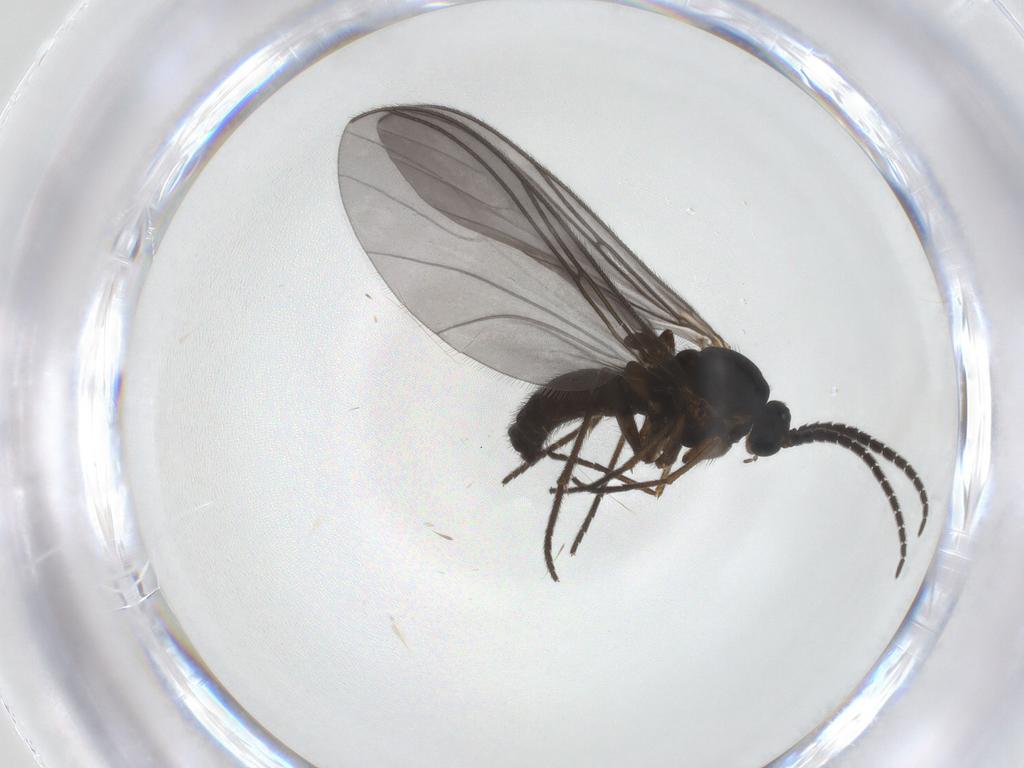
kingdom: Animalia
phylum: Arthropoda
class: Insecta
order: Diptera
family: Sciaridae
